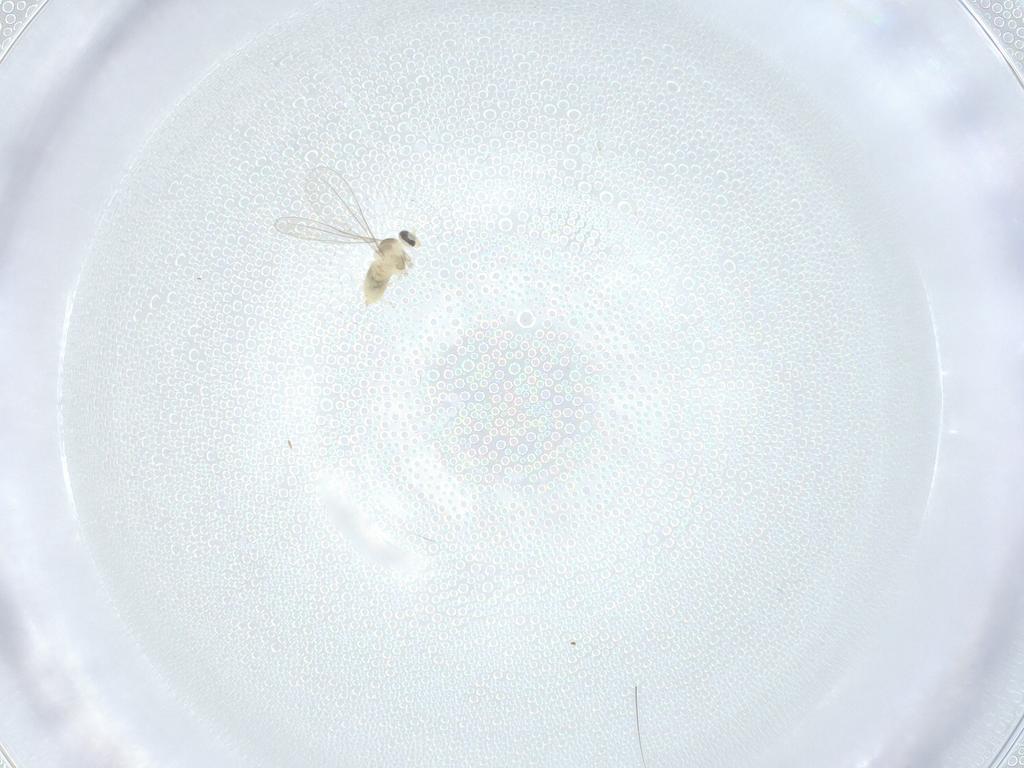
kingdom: Animalia
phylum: Arthropoda
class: Insecta
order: Diptera
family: Cecidomyiidae
